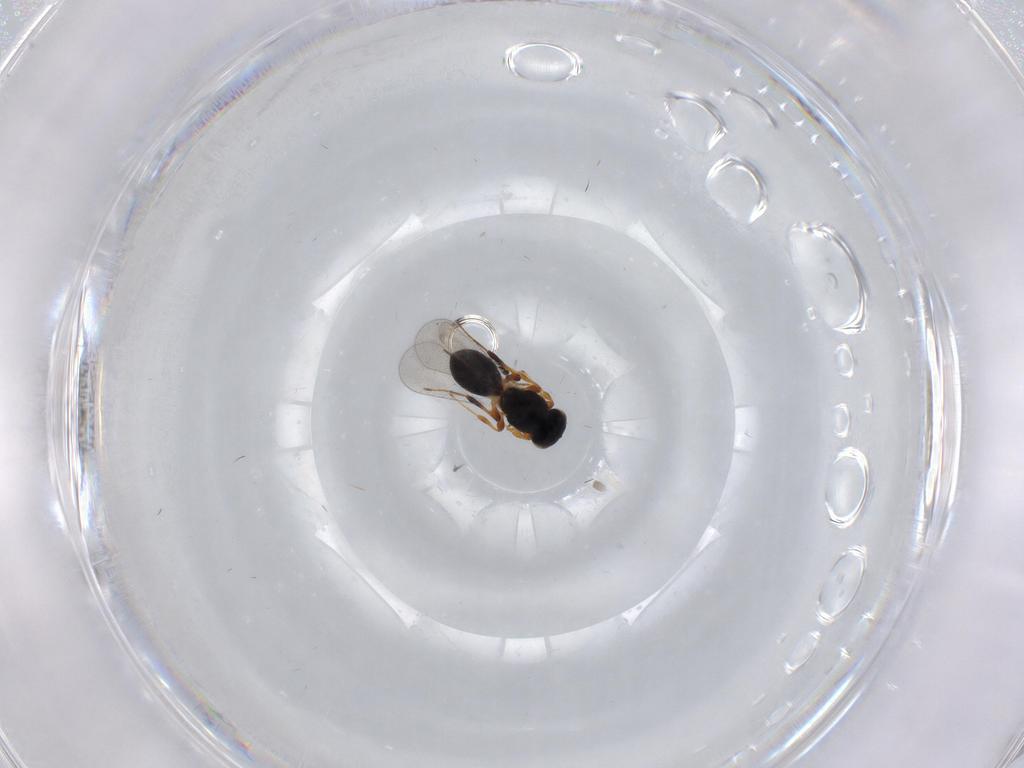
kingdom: Animalia
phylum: Arthropoda
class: Insecta
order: Hymenoptera
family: Platygastridae
